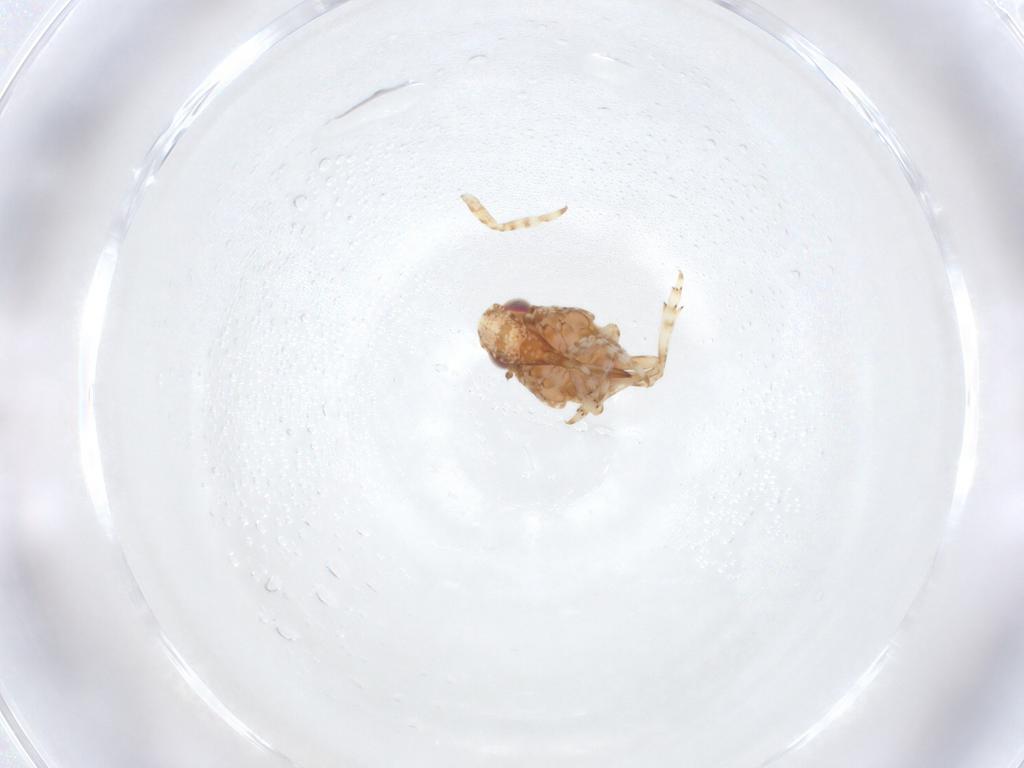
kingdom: Animalia
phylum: Arthropoda
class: Insecta
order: Hemiptera
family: Nogodinidae
